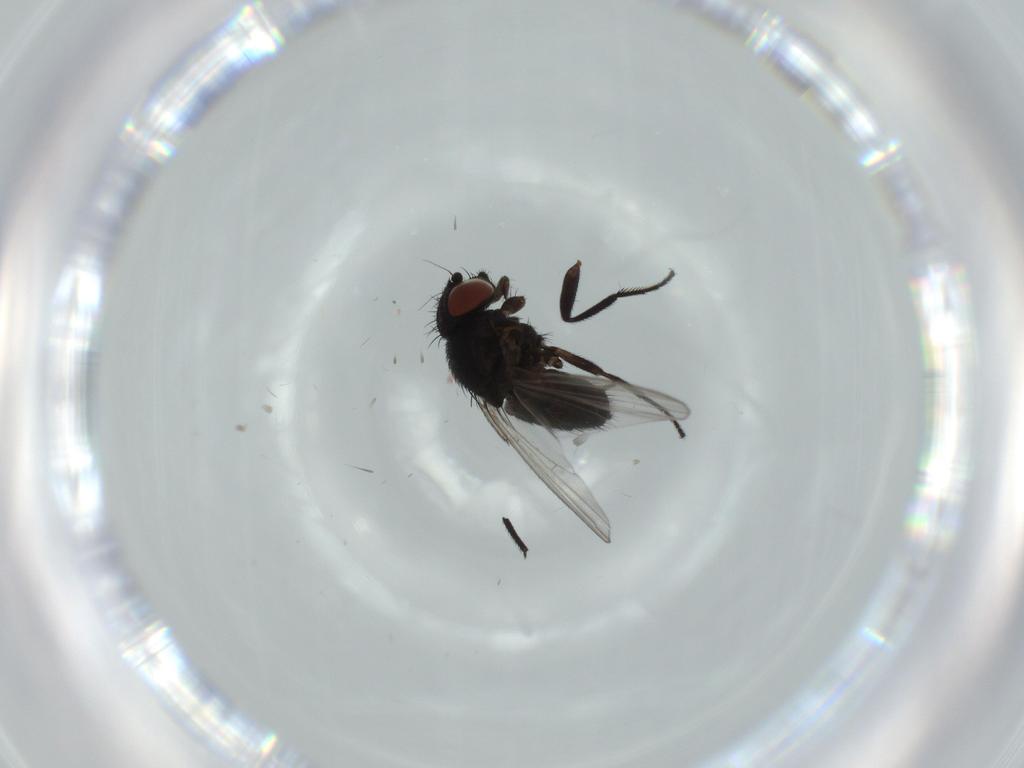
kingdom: Animalia
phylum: Arthropoda
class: Insecta
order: Diptera
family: Milichiidae
